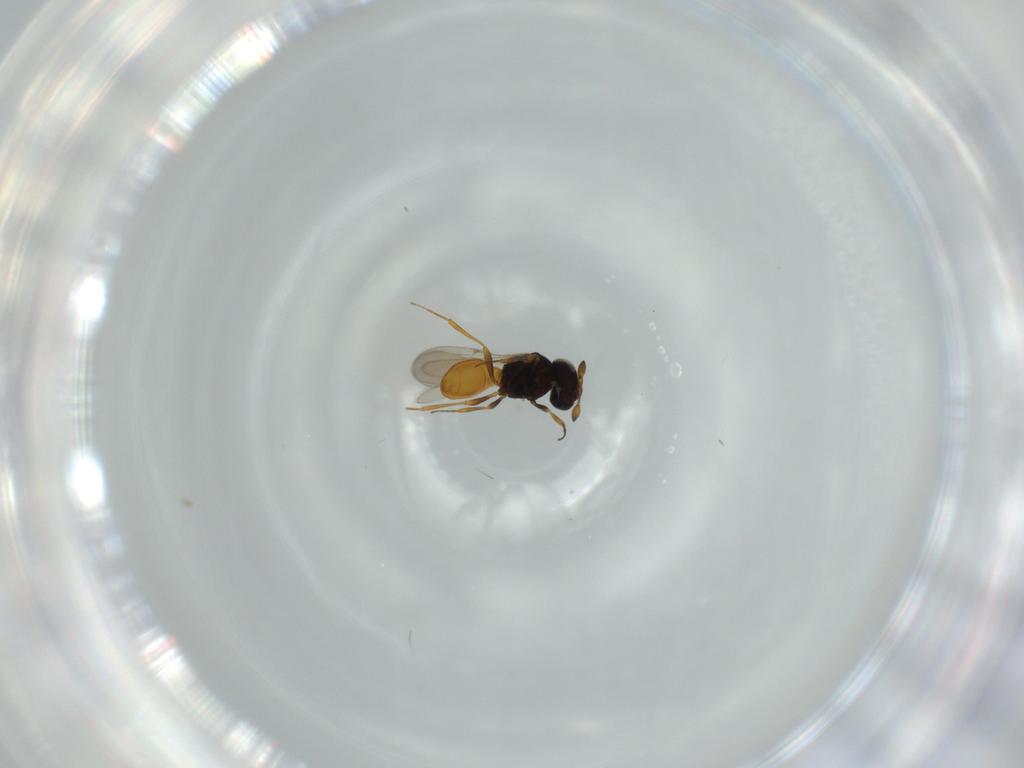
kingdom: Animalia
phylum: Arthropoda
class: Insecta
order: Hymenoptera
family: Scelionidae
